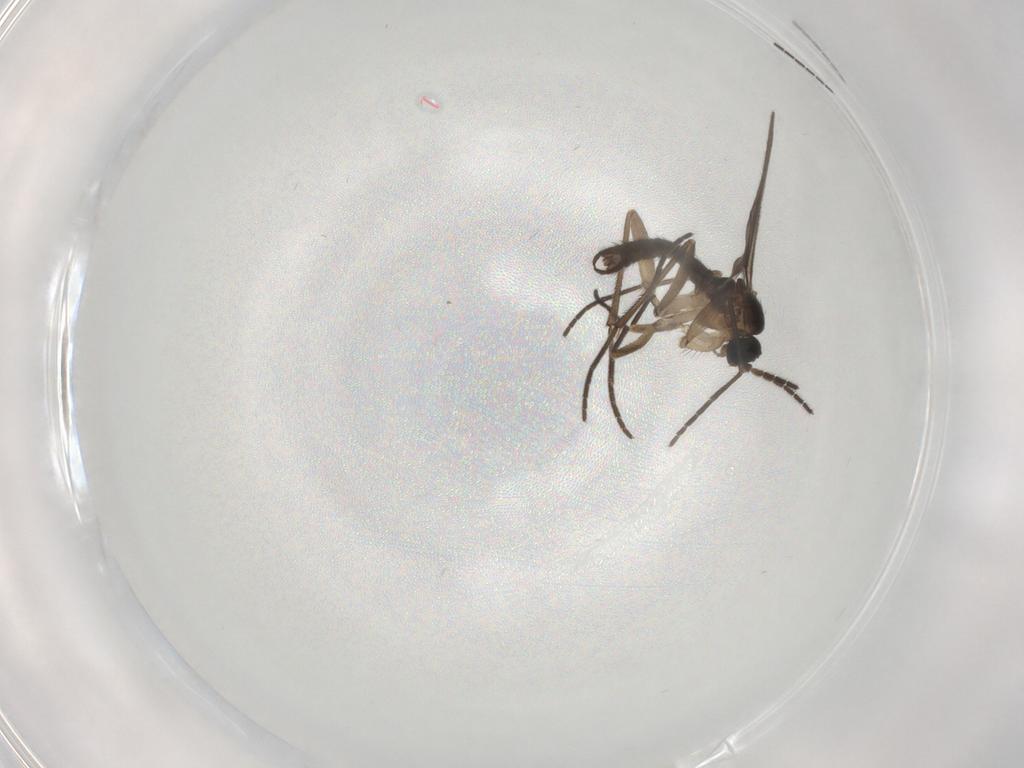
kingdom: Animalia
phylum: Arthropoda
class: Insecta
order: Diptera
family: Sciaridae
